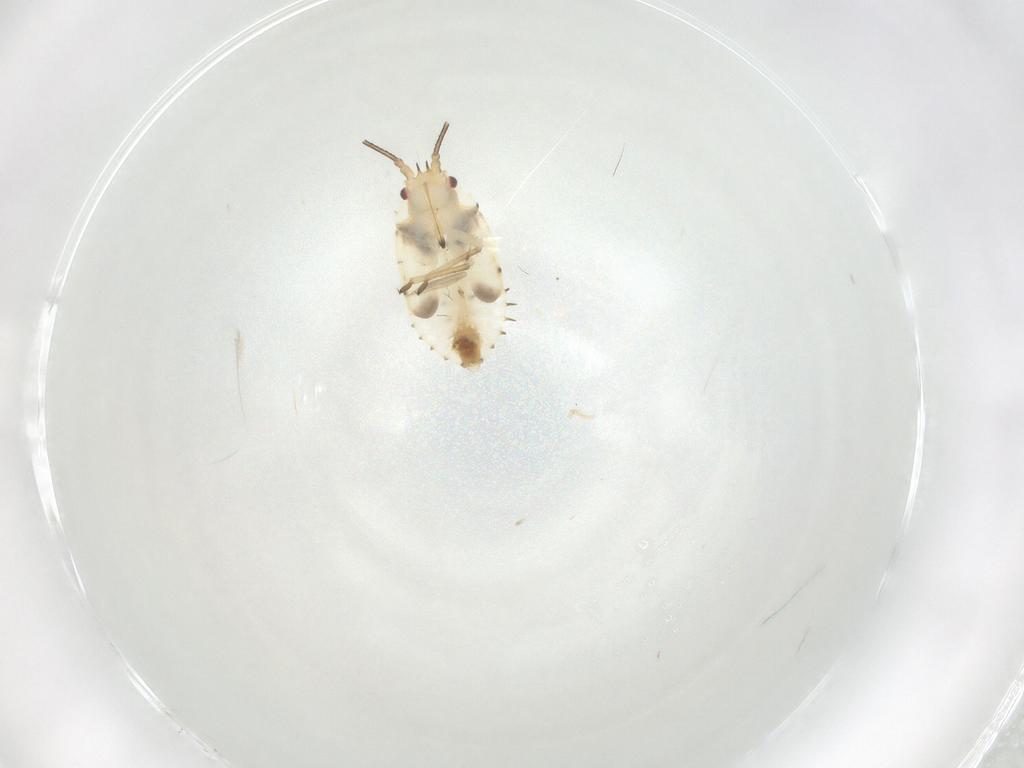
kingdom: Animalia
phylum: Arthropoda
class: Insecta
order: Hemiptera
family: Tingidae
